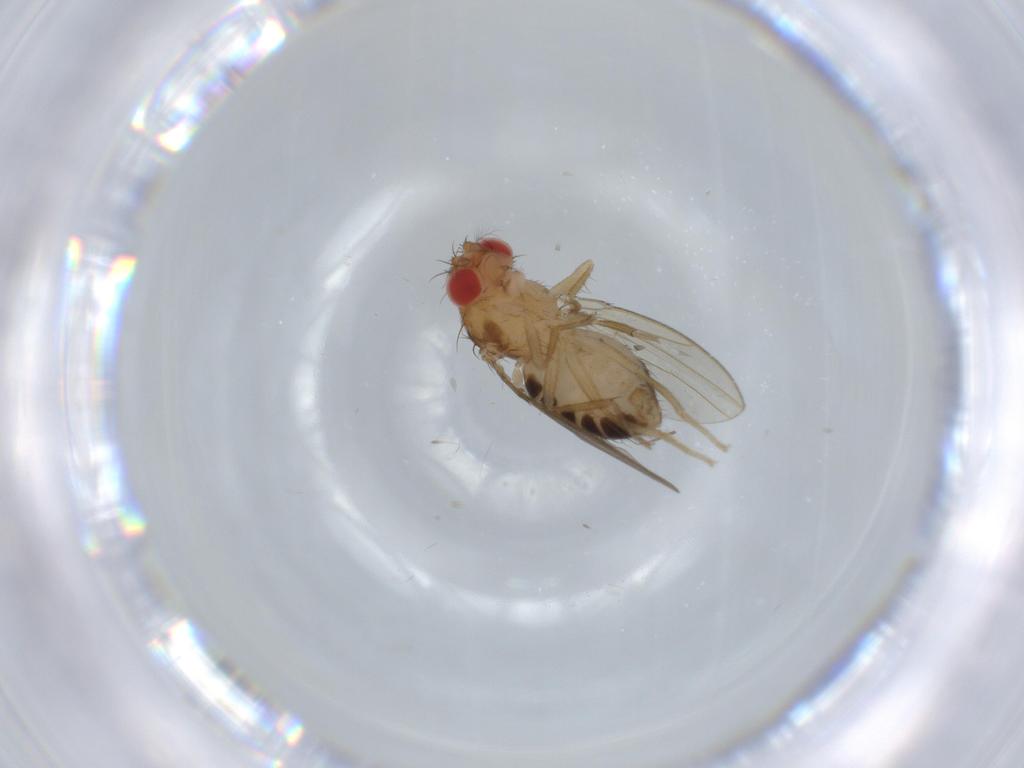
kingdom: Animalia
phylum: Arthropoda
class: Insecta
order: Diptera
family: Drosophilidae
